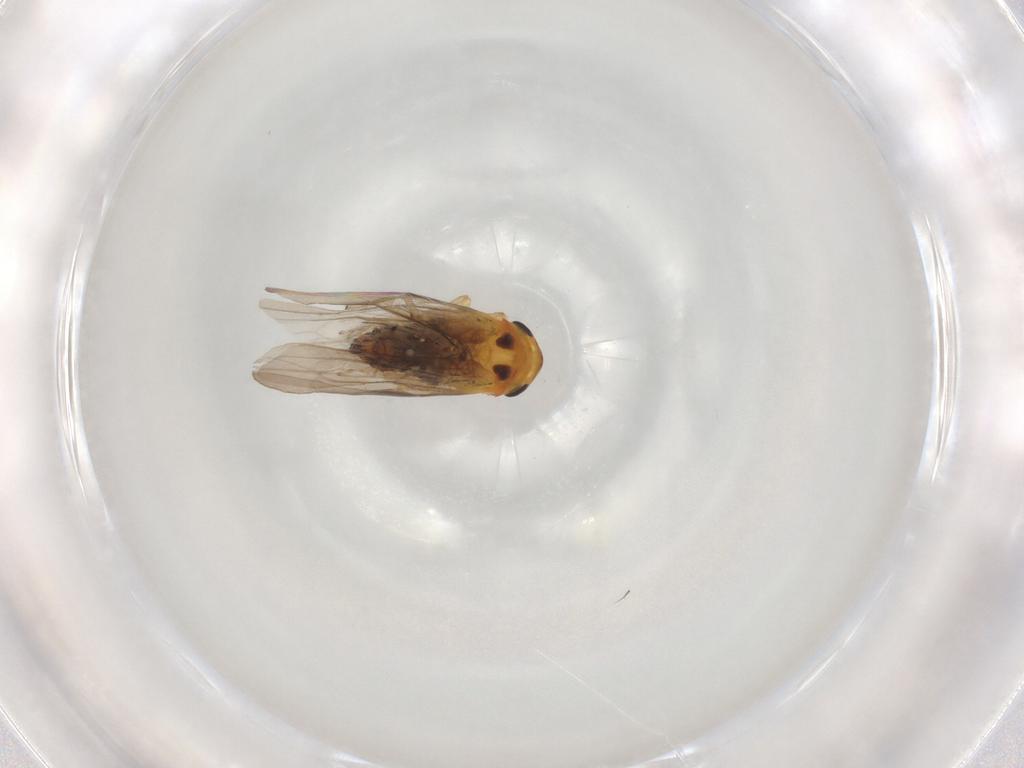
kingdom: Animalia
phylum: Arthropoda
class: Insecta
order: Hemiptera
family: Cicadellidae
